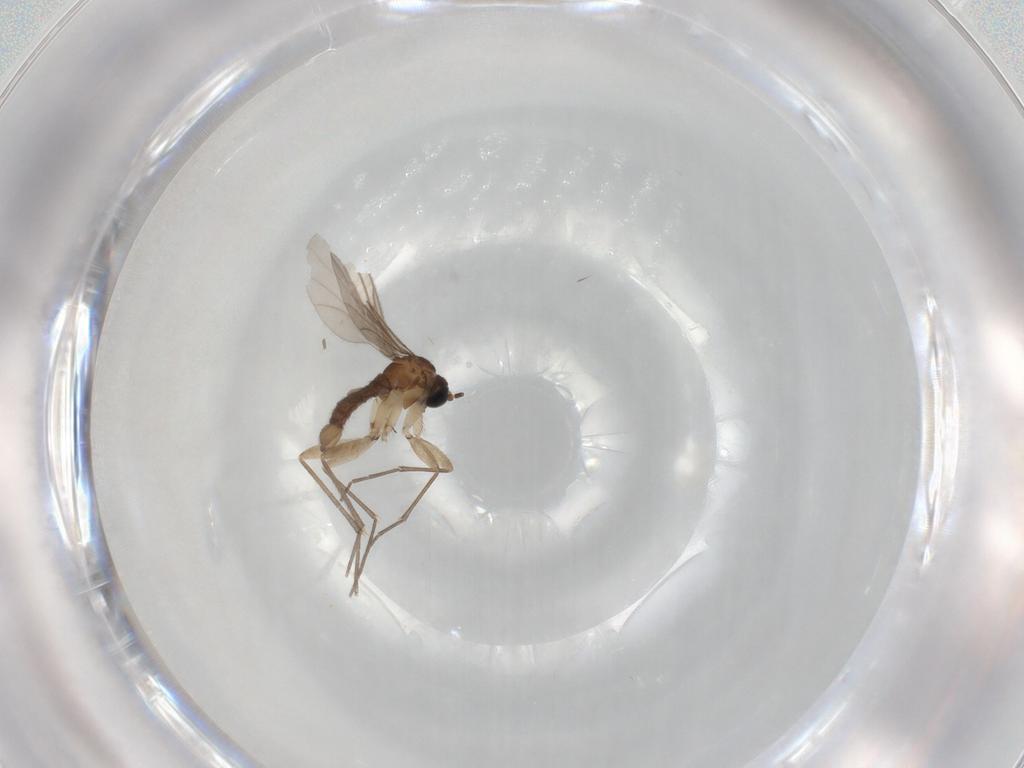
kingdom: Animalia
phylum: Arthropoda
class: Insecta
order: Diptera
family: Sciaridae
